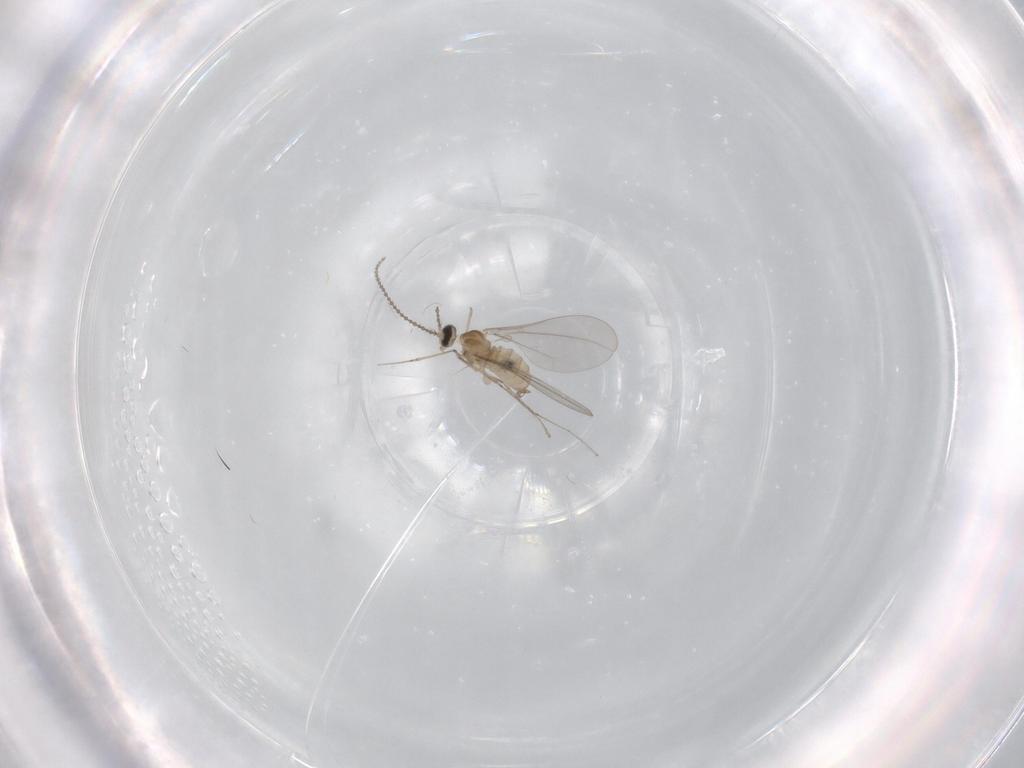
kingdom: Animalia
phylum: Arthropoda
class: Insecta
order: Diptera
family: Cecidomyiidae
